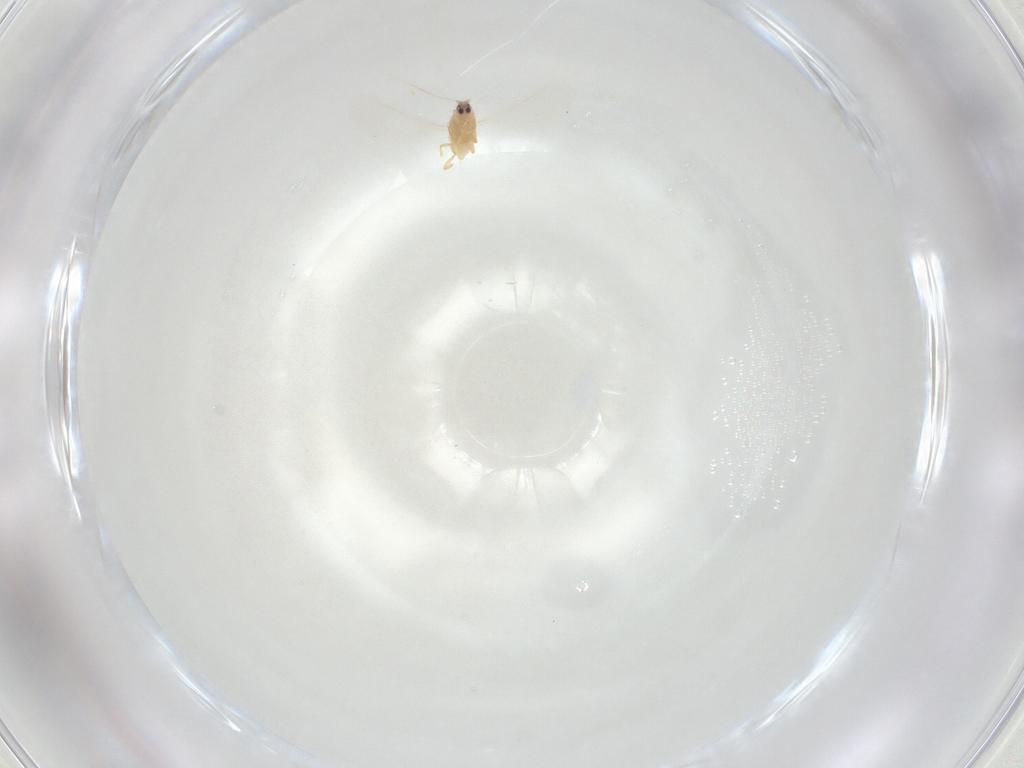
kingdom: Animalia
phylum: Arthropoda
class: Insecta
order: Hemiptera
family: Diaspididae
